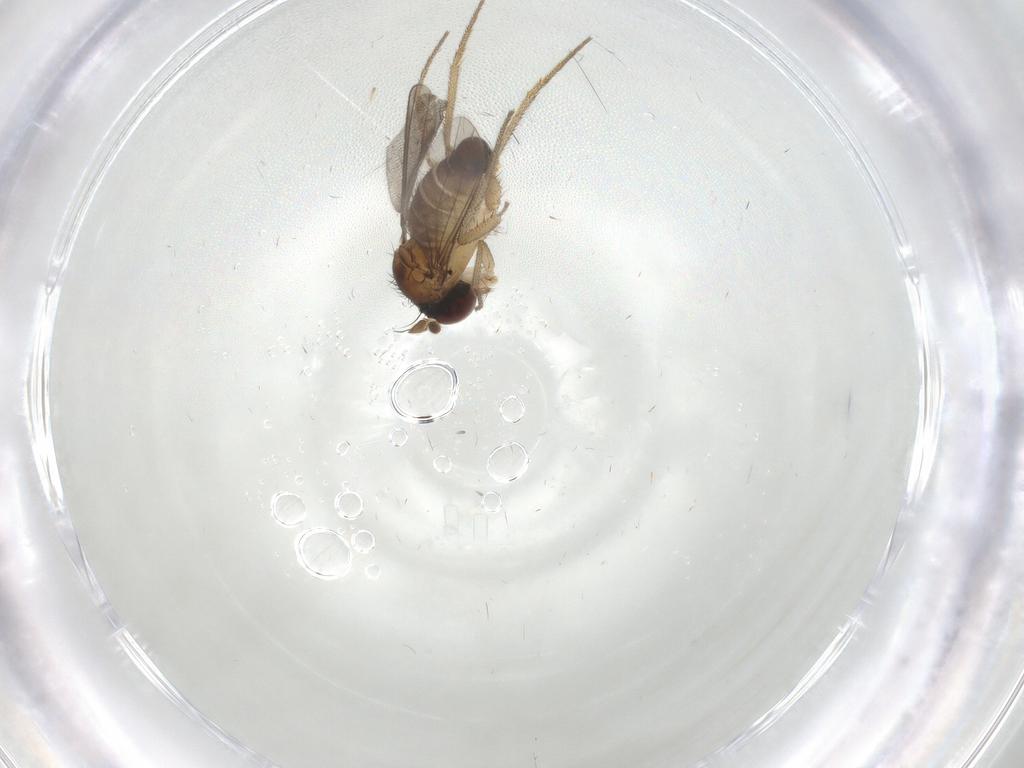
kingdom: Animalia
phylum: Arthropoda
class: Insecta
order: Diptera
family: Dolichopodidae
